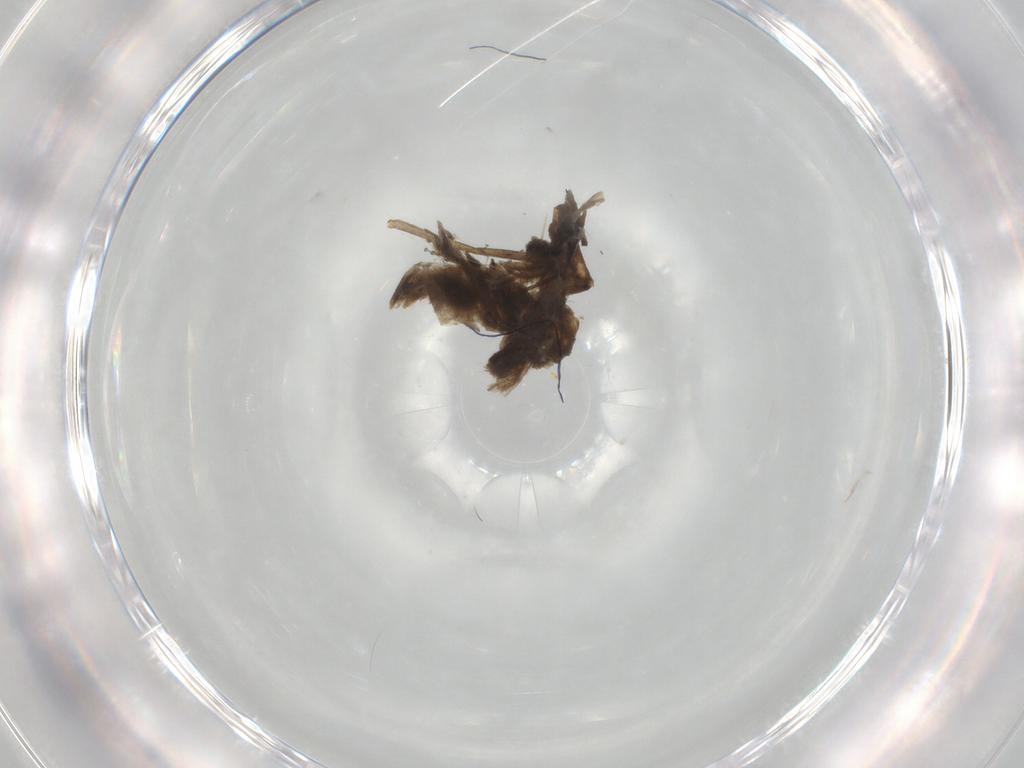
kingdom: Animalia
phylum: Arthropoda
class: Insecta
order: Diptera
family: Cecidomyiidae
